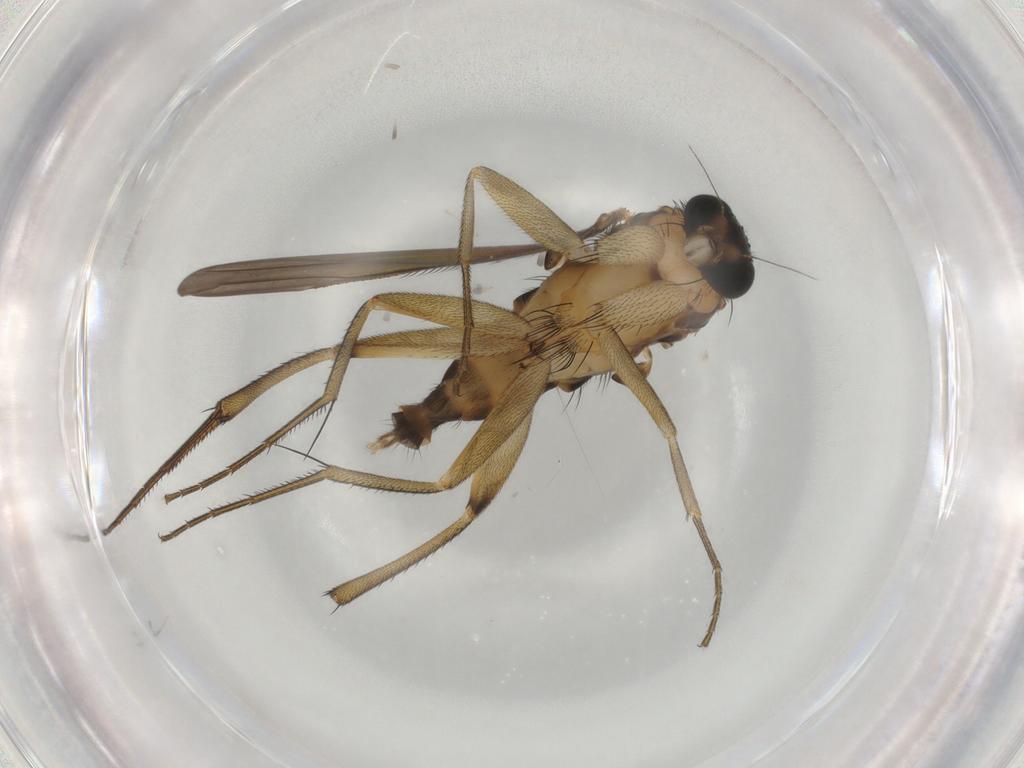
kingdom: Animalia
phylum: Arthropoda
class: Insecta
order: Diptera
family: Phoridae
